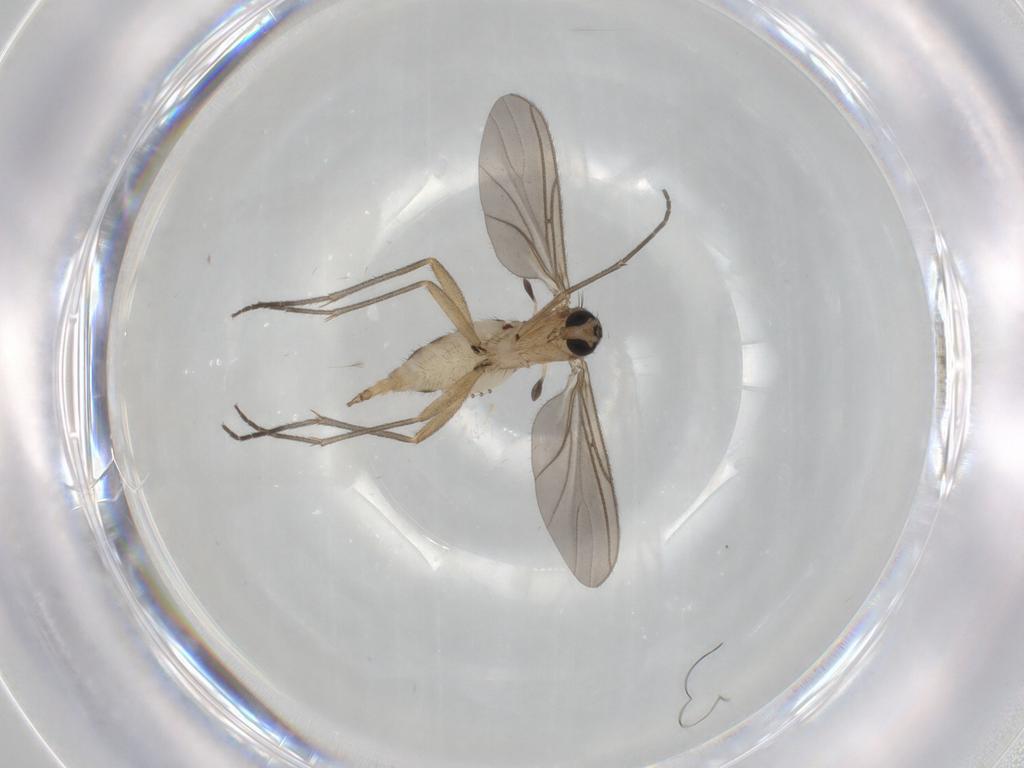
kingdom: Animalia
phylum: Arthropoda
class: Insecta
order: Diptera
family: Sciaridae
